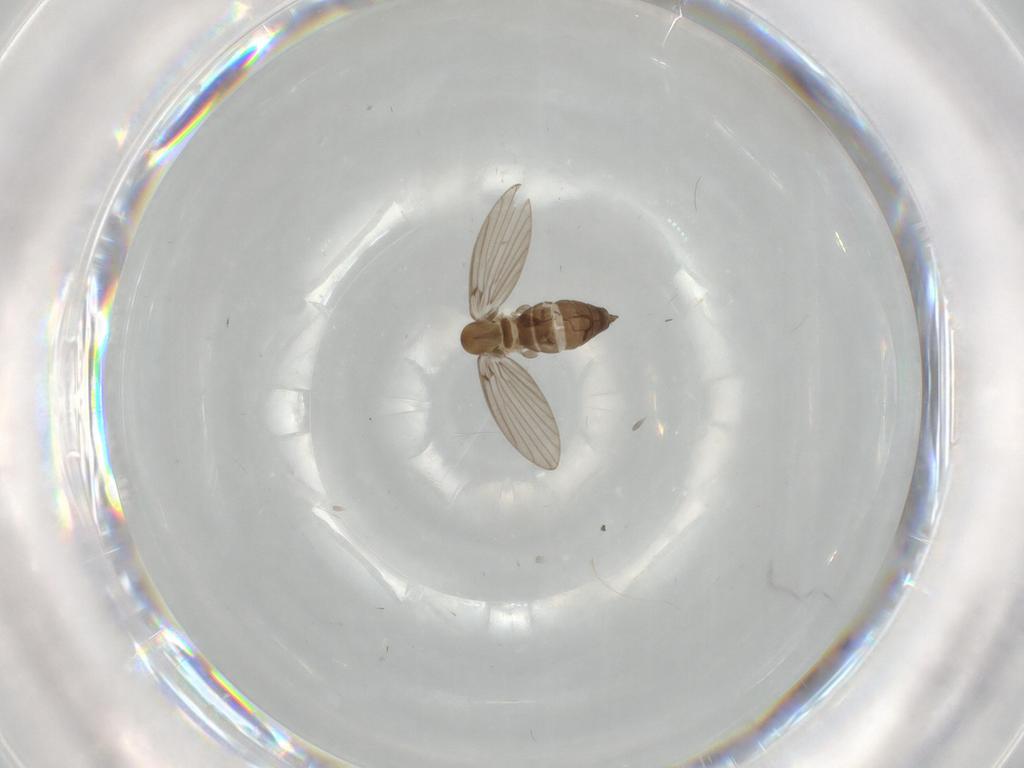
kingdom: Animalia
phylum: Arthropoda
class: Insecta
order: Diptera
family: Psychodidae
